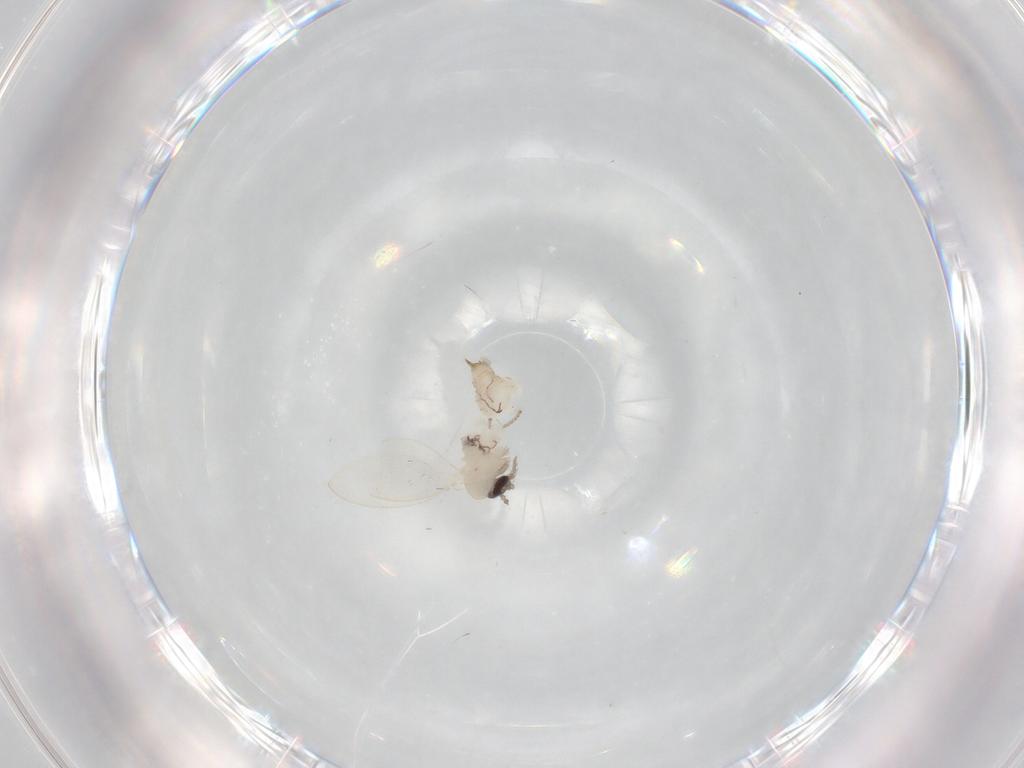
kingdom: Animalia
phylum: Arthropoda
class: Insecta
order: Diptera
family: Psychodidae
